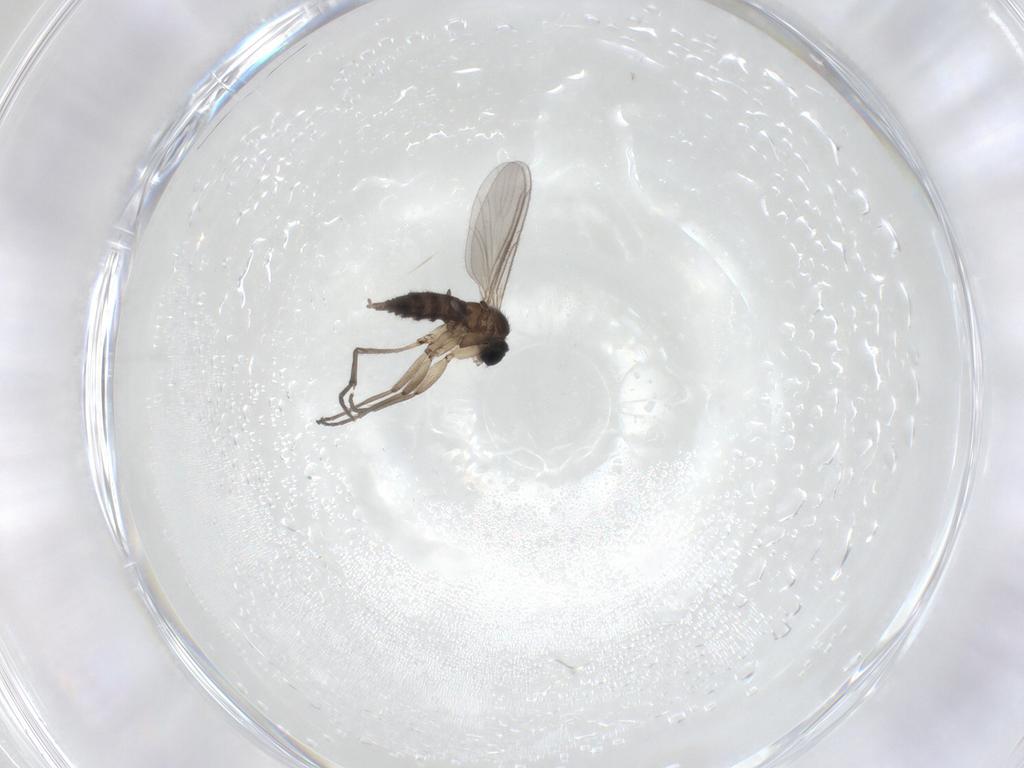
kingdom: Animalia
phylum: Arthropoda
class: Insecta
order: Diptera
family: Sciaridae
